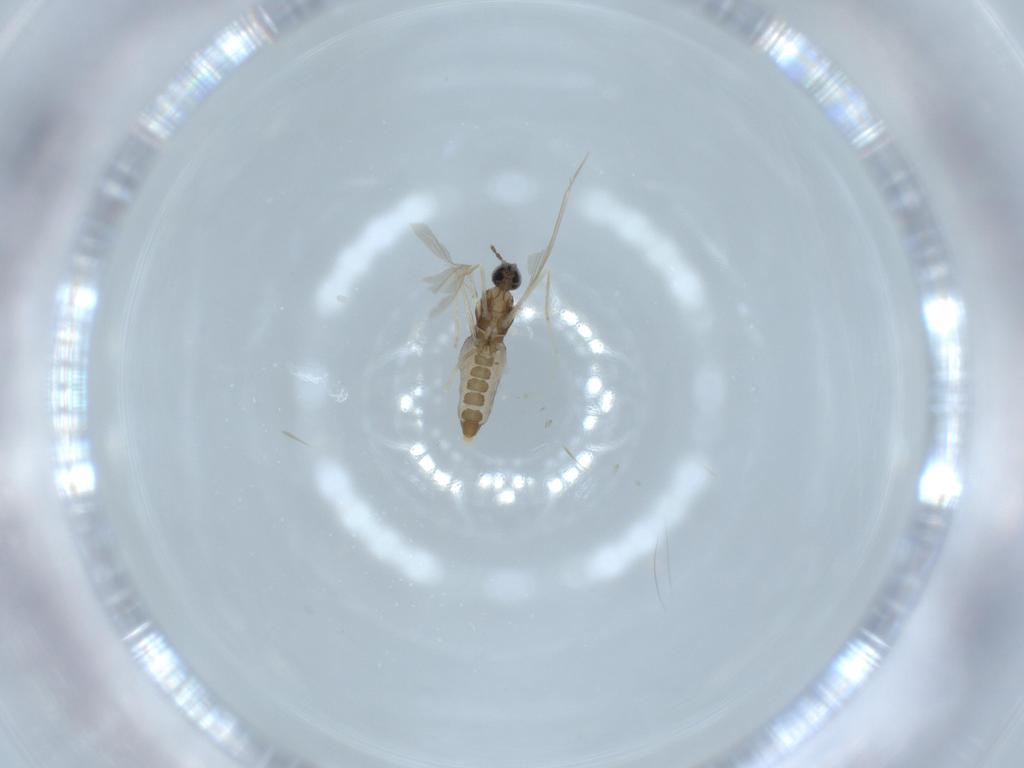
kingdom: Animalia
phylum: Arthropoda
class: Insecta
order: Diptera
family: Cecidomyiidae
